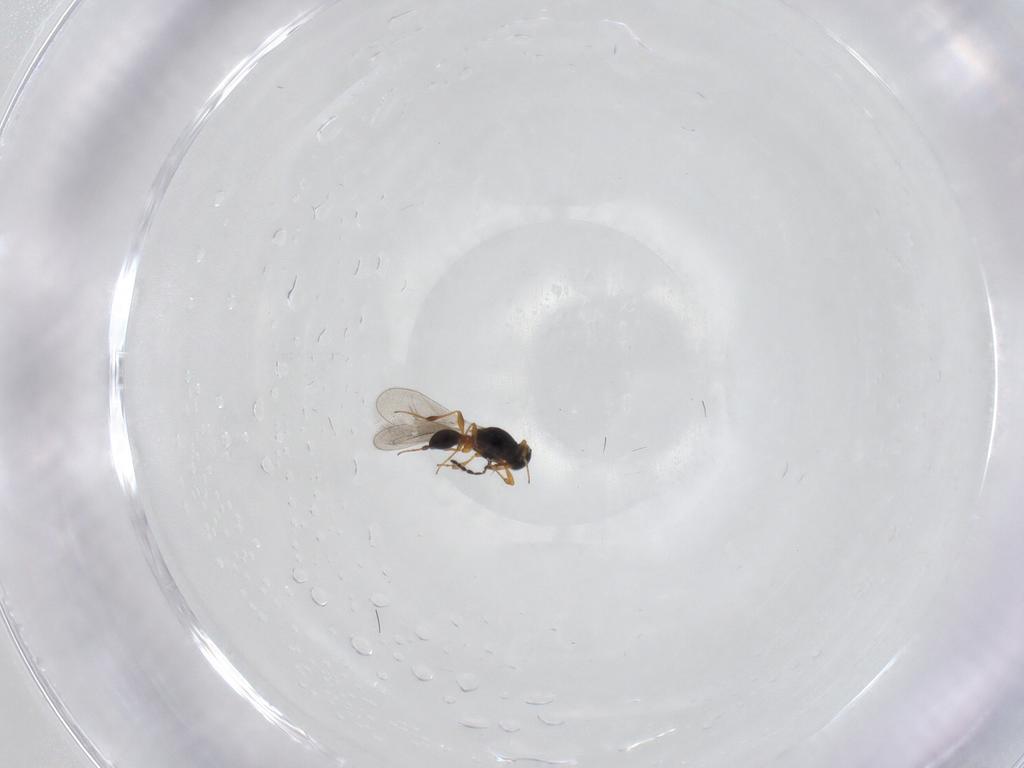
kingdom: Animalia
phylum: Arthropoda
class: Insecta
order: Hymenoptera
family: Platygastridae
